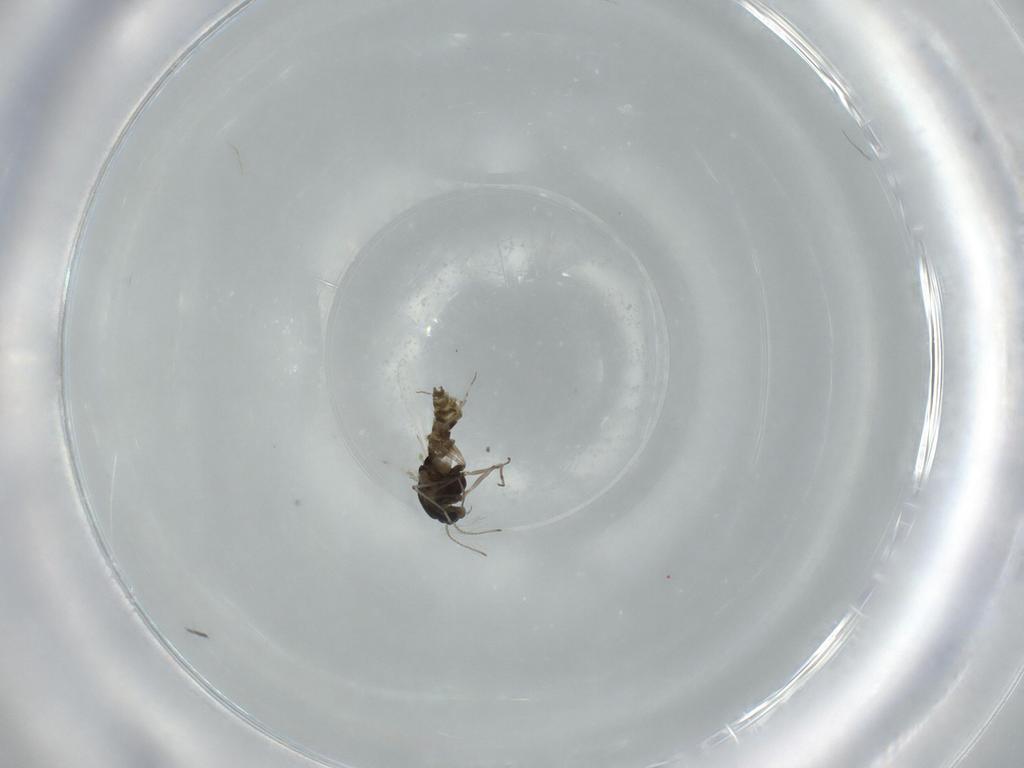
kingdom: Animalia
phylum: Arthropoda
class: Insecta
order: Diptera
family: Chironomidae
